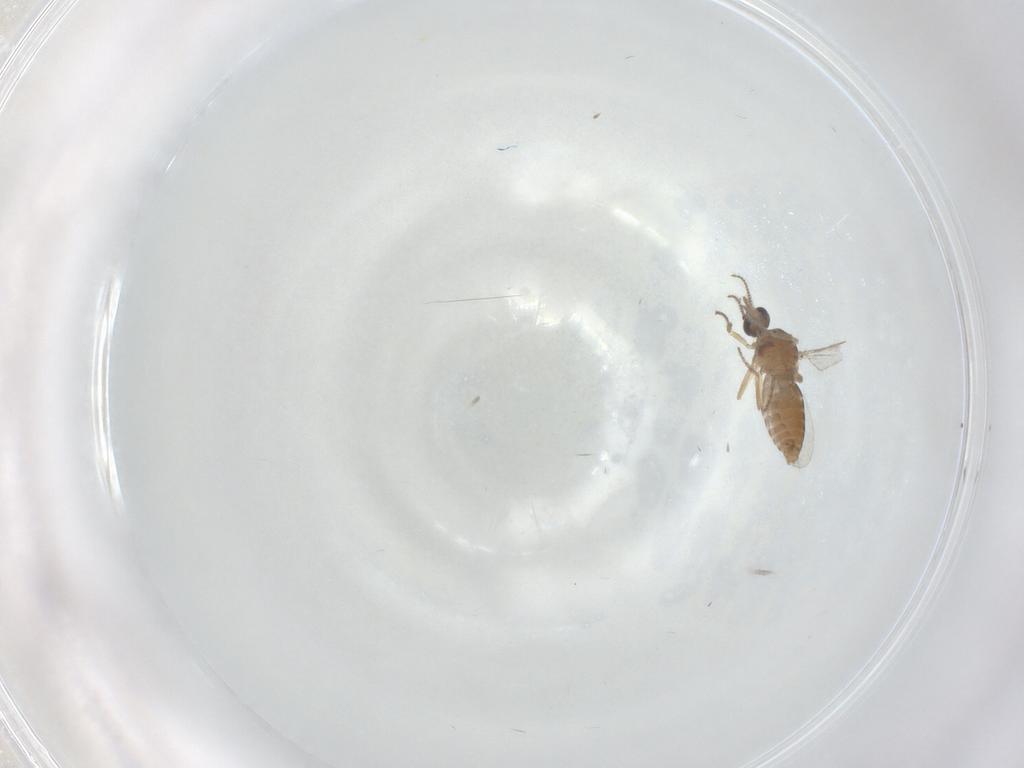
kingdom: Animalia
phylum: Arthropoda
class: Insecta
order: Diptera
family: Ceratopogonidae
